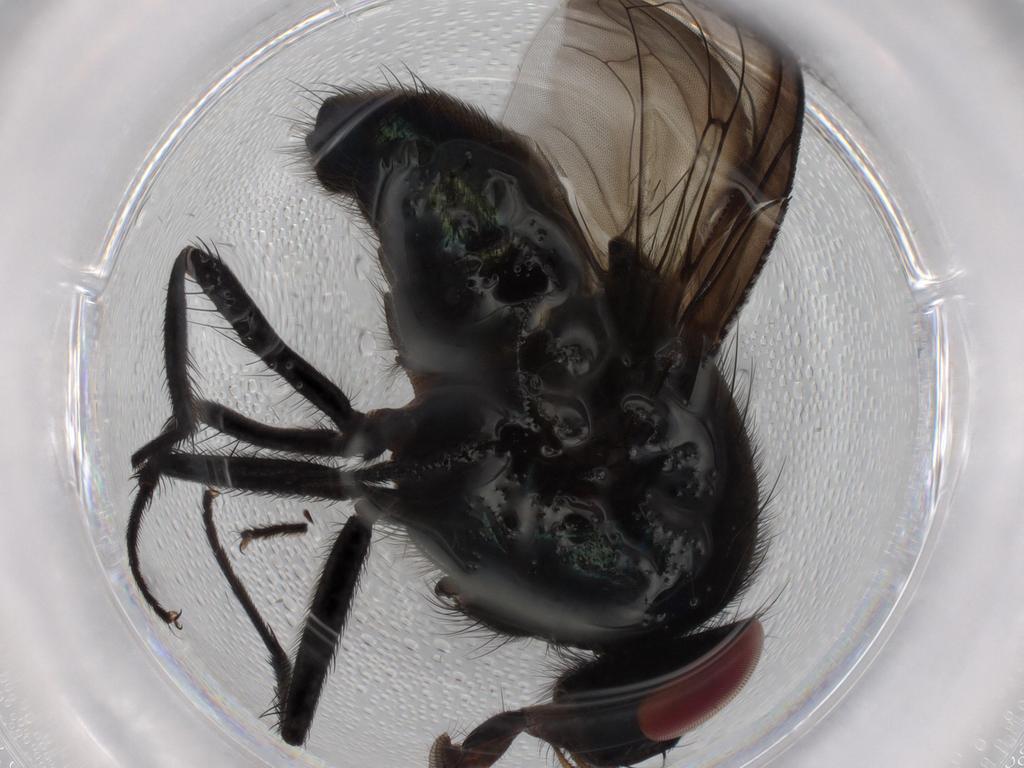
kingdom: Animalia
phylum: Arthropoda
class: Insecta
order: Diptera
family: Muscidae
